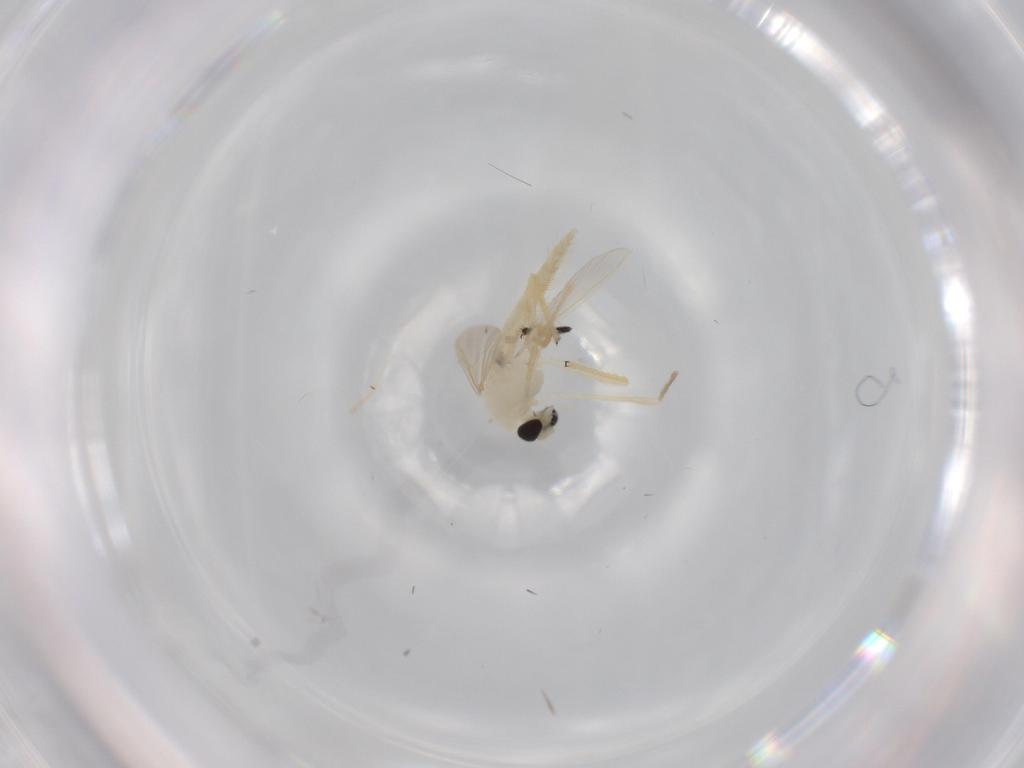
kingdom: Animalia
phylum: Arthropoda
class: Insecta
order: Diptera
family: Chironomidae
